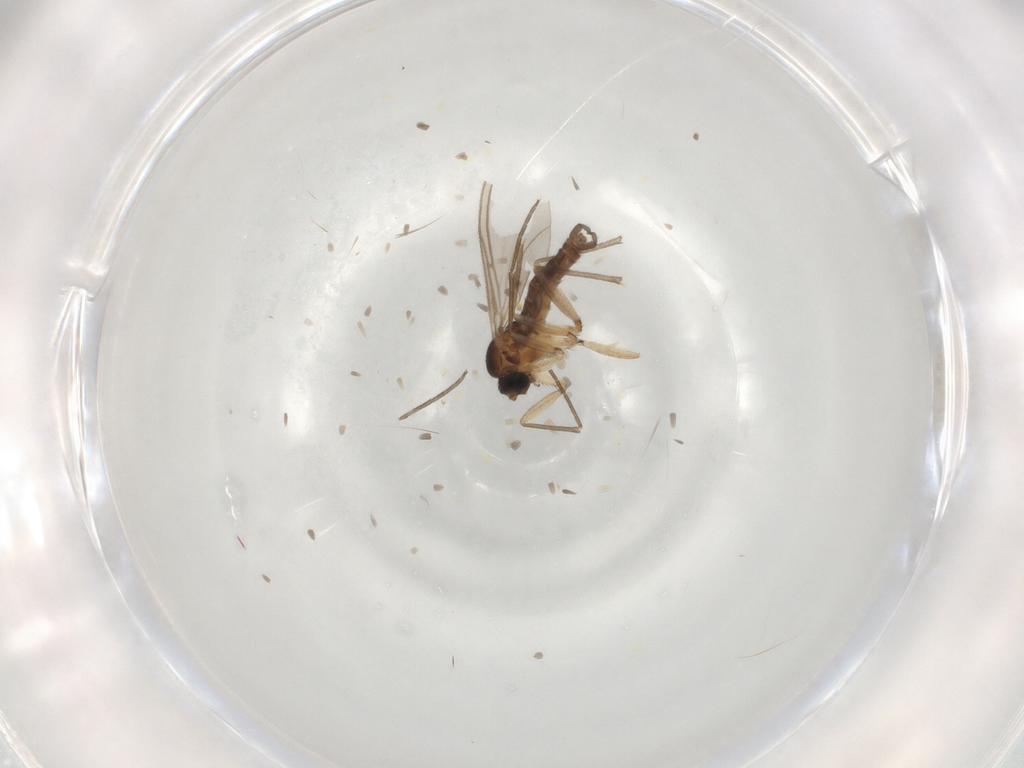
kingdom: Animalia
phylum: Arthropoda
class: Insecta
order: Diptera
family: Sciaridae
